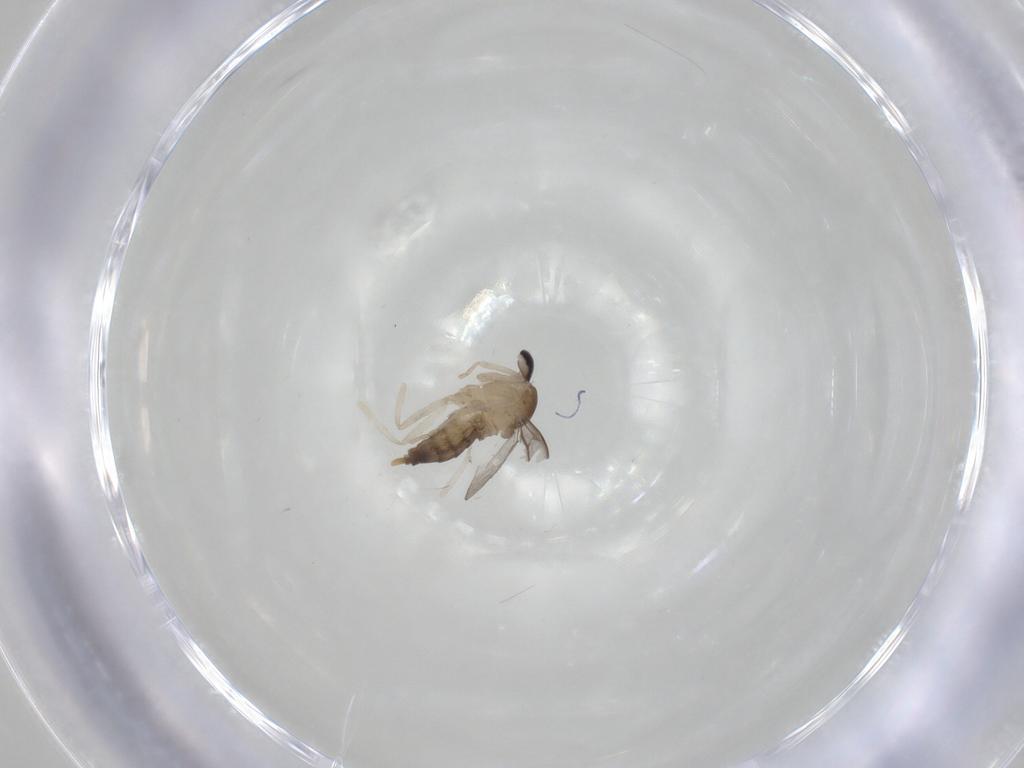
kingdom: Animalia
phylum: Arthropoda
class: Insecta
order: Diptera
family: Cecidomyiidae
